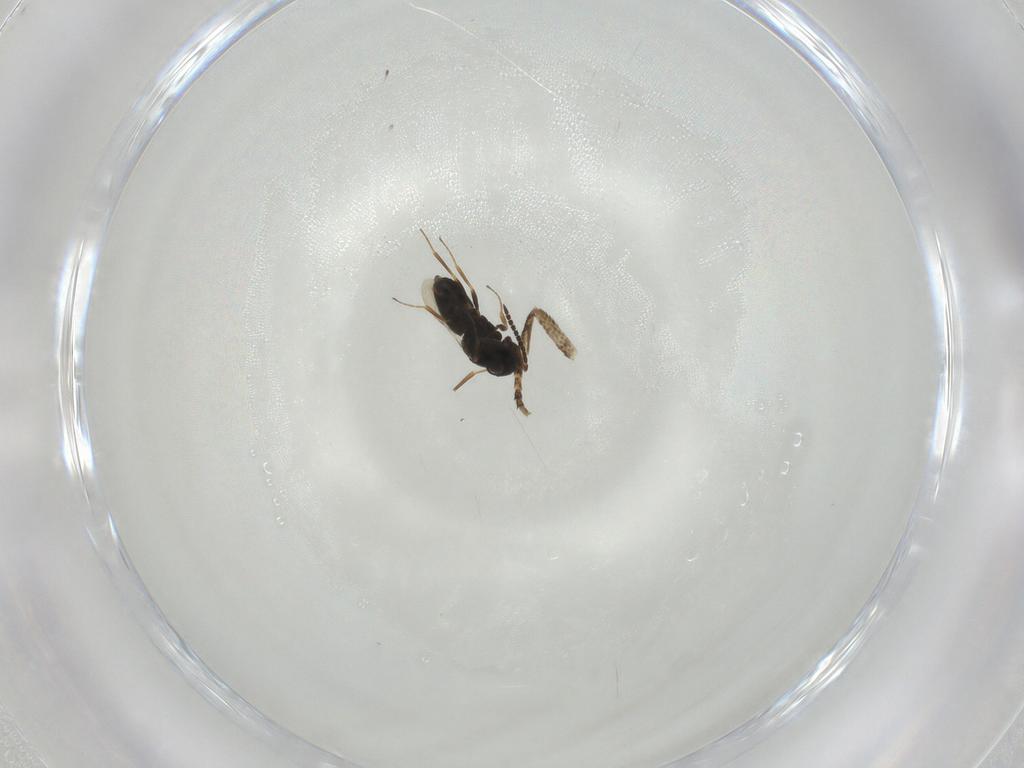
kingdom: Animalia
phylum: Arthropoda
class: Insecta
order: Hymenoptera
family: Scelionidae
